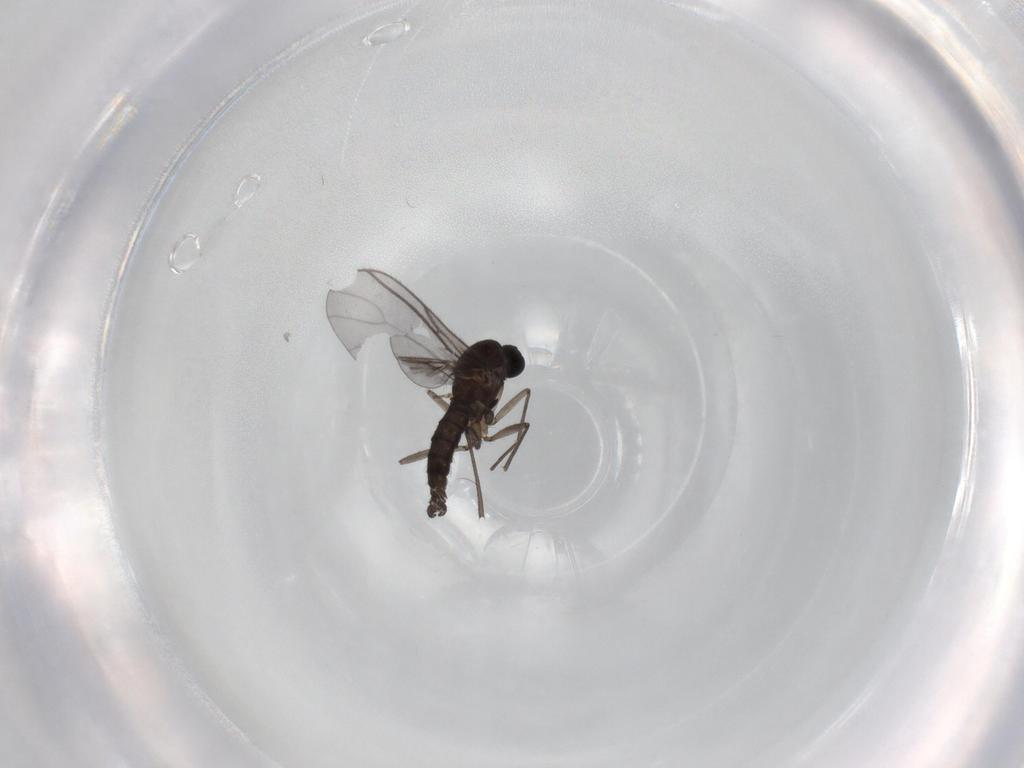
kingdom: Animalia
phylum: Arthropoda
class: Insecta
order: Diptera
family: Sciaridae
